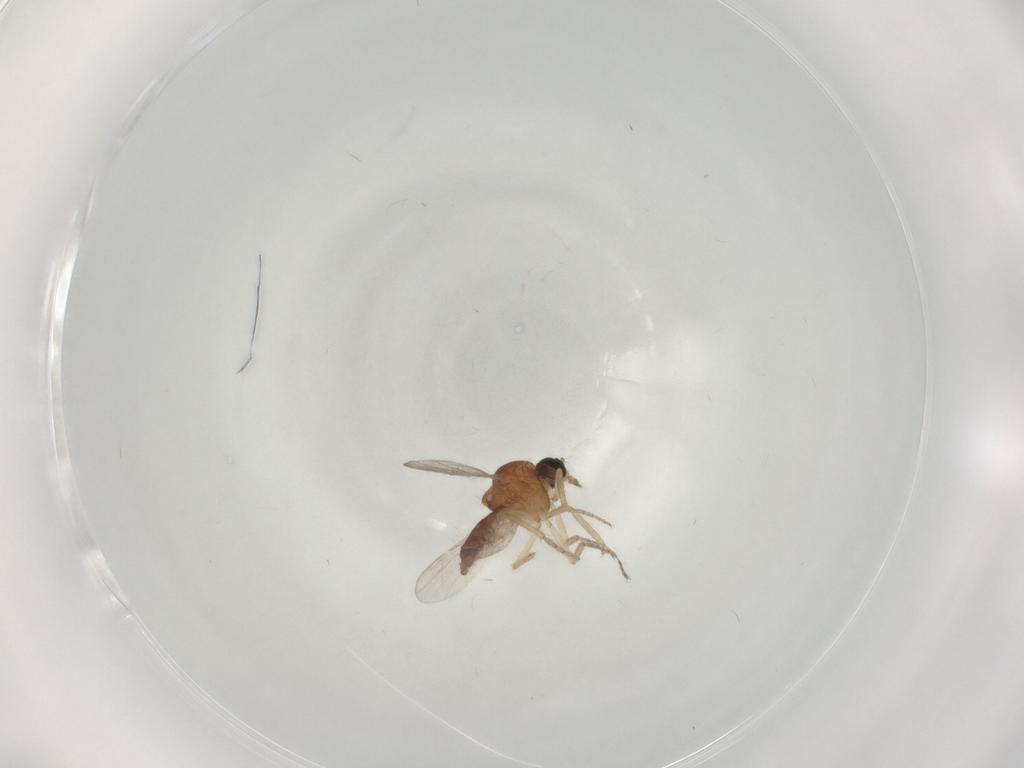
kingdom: Animalia
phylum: Arthropoda
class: Insecta
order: Diptera
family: Ceratopogonidae
